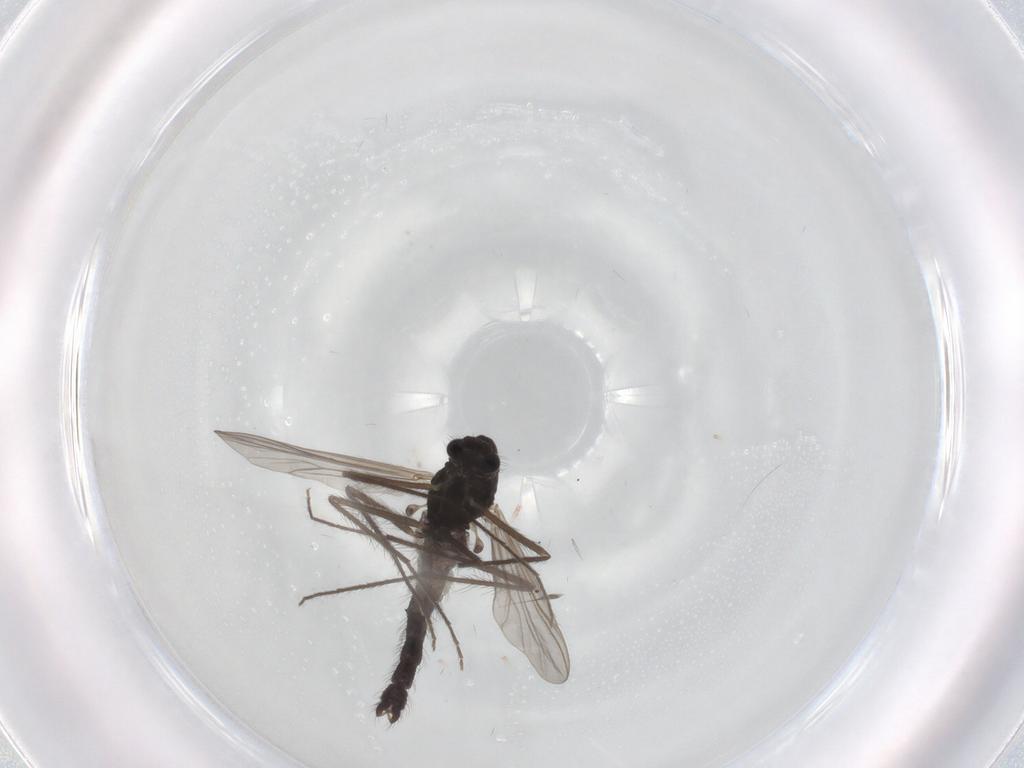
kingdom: Animalia
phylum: Arthropoda
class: Insecta
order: Diptera
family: Chironomidae
